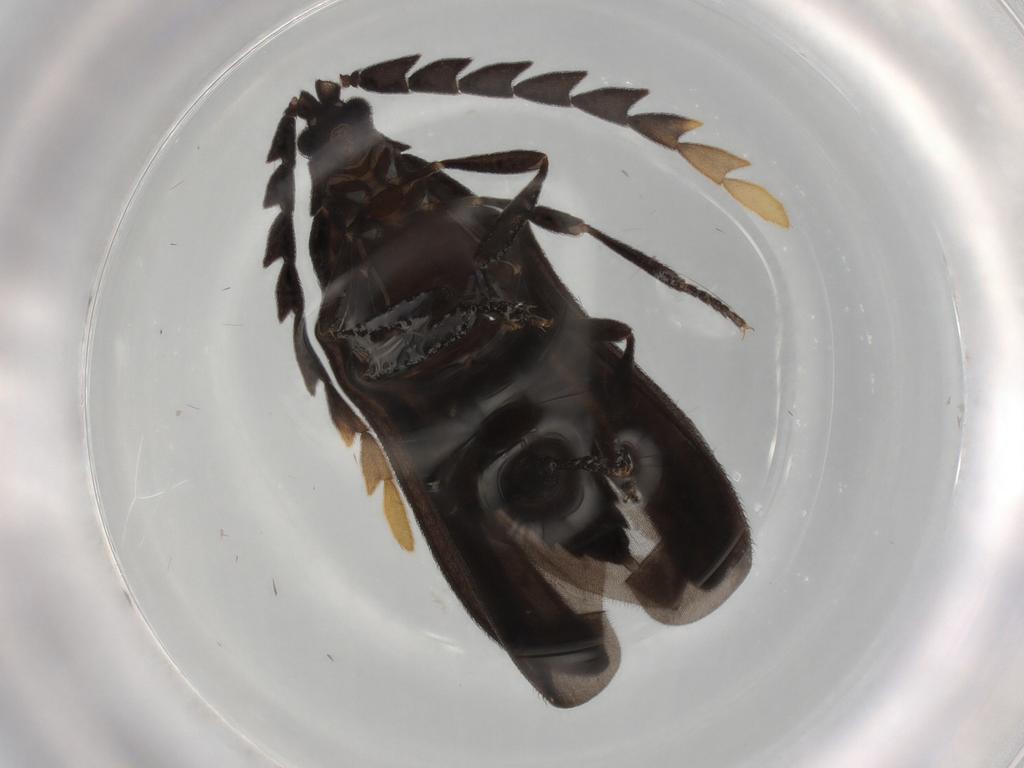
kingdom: Animalia
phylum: Arthropoda
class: Insecta
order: Coleoptera
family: Lycidae
